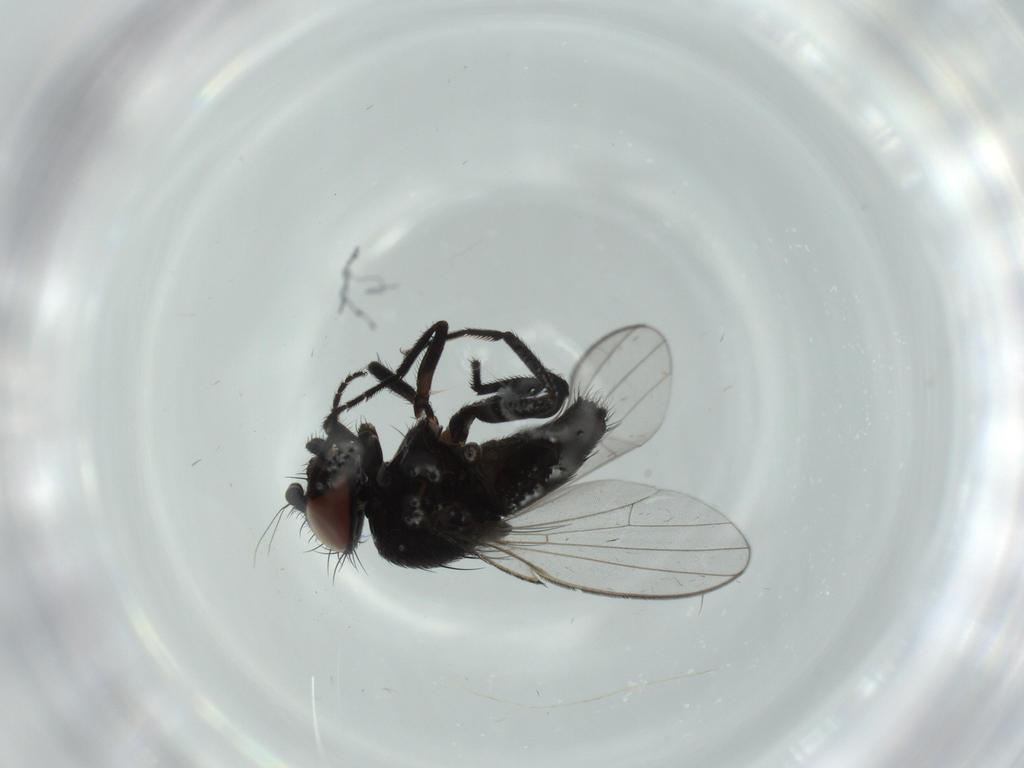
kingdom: Animalia
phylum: Arthropoda
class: Insecta
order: Diptera
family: Milichiidae
